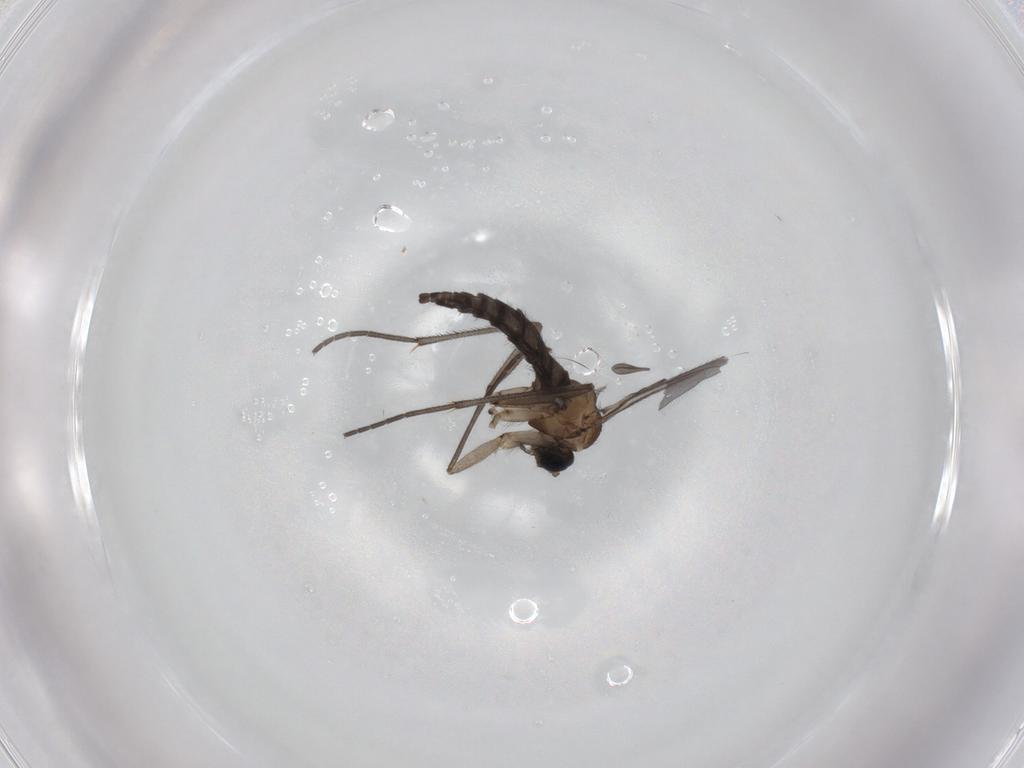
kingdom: Animalia
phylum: Arthropoda
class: Insecta
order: Diptera
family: Sciaridae
